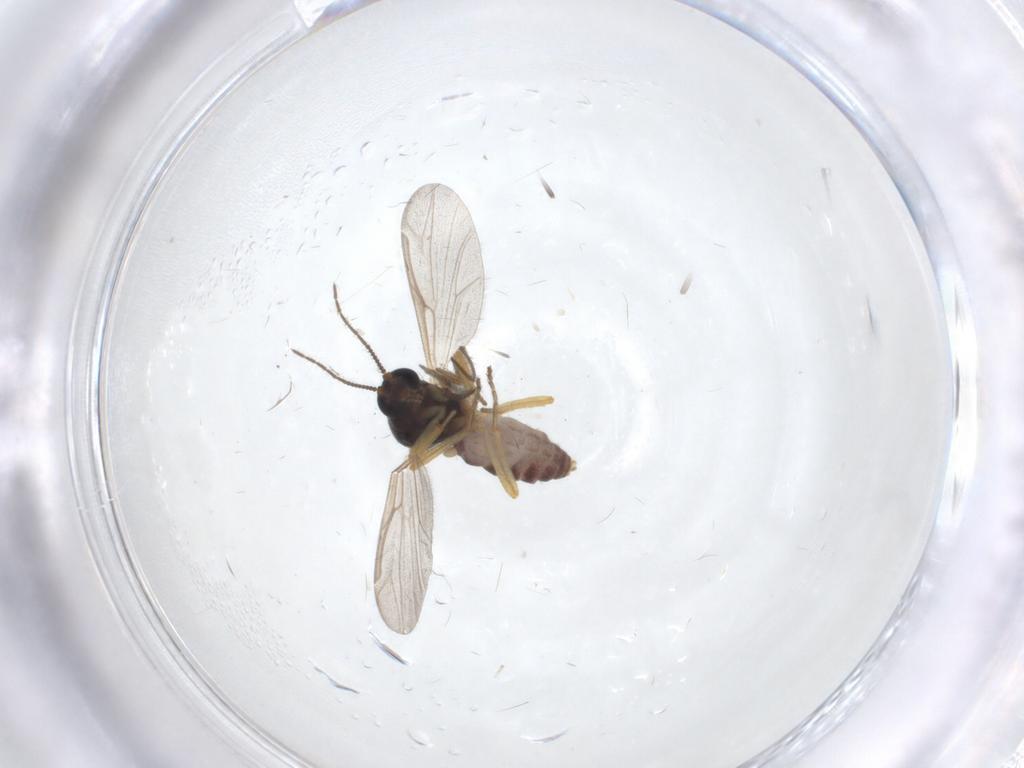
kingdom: Animalia
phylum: Arthropoda
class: Insecta
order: Diptera
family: Ceratopogonidae
